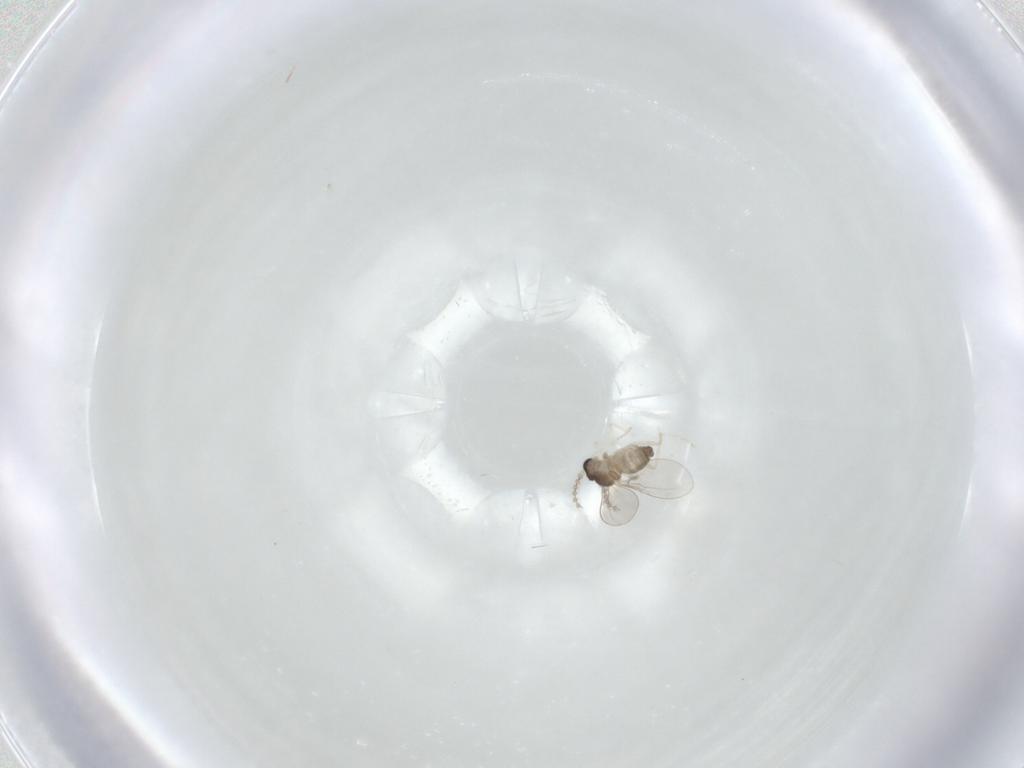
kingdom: Animalia
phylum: Arthropoda
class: Insecta
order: Diptera
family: Cecidomyiidae
